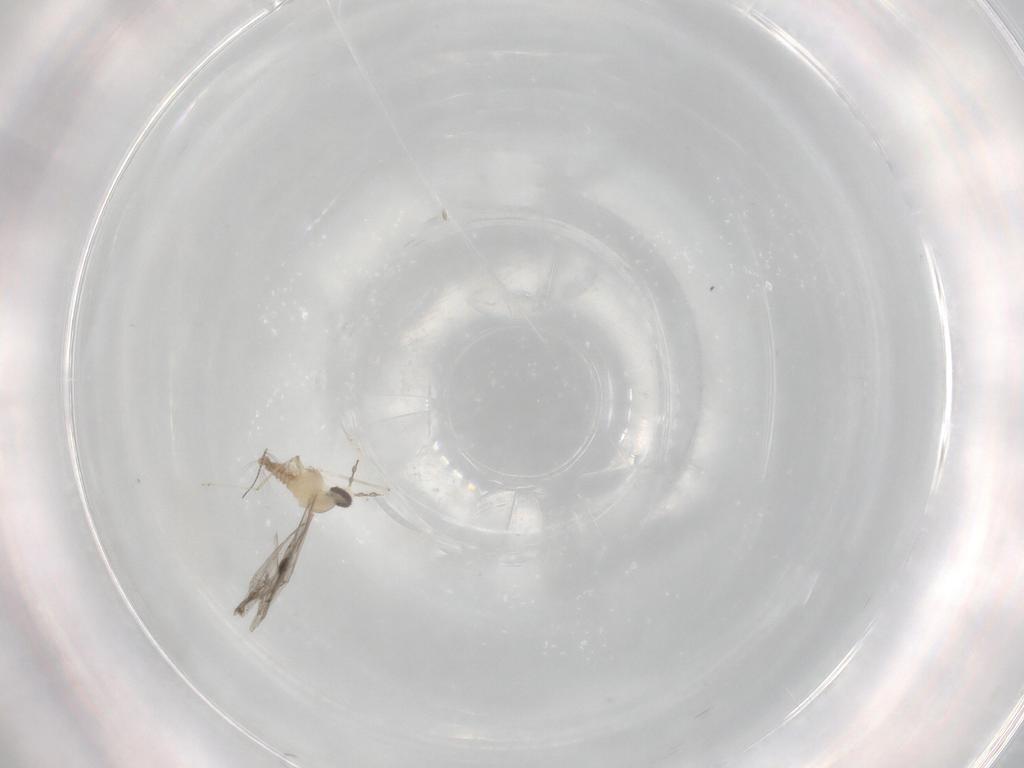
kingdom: Animalia
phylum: Arthropoda
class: Insecta
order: Diptera
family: Cecidomyiidae
